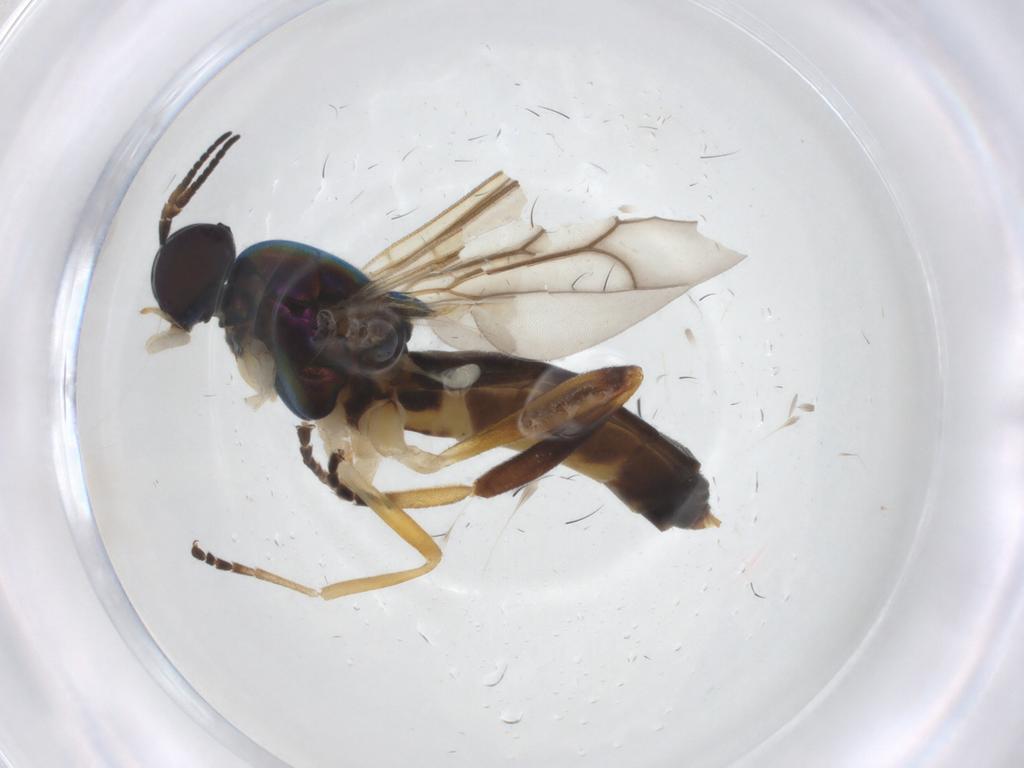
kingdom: Animalia
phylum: Arthropoda
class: Insecta
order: Diptera
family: Stratiomyidae
